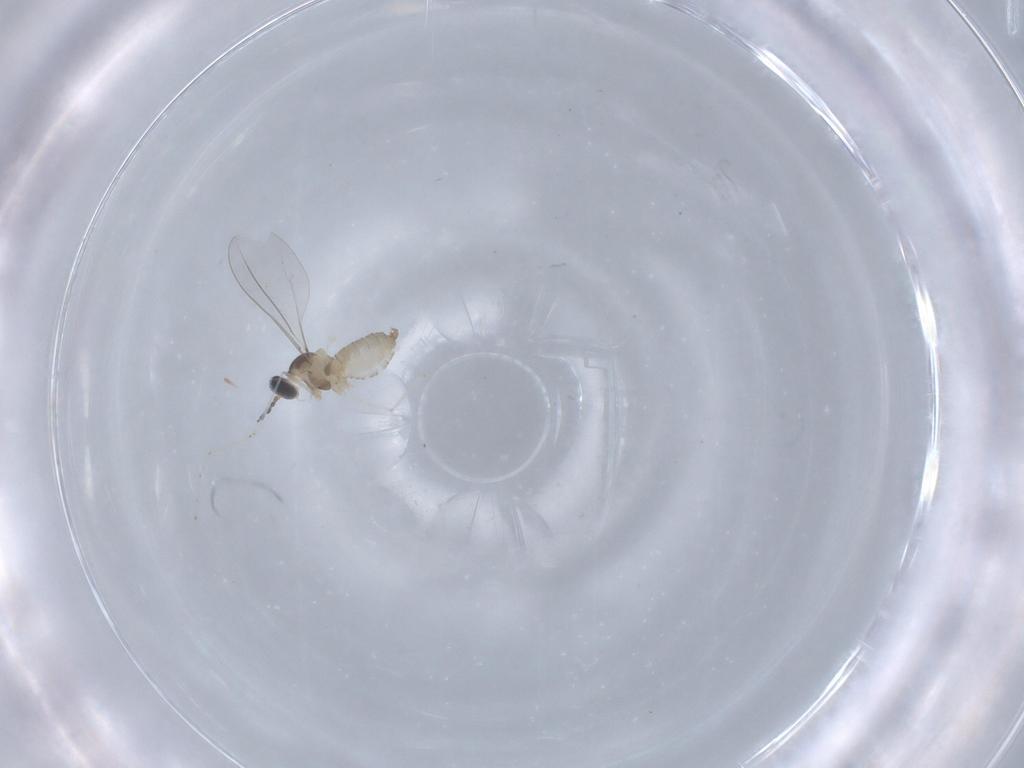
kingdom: Animalia
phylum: Arthropoda
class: Insecta
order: Diptera
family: Cecidomyiidae
